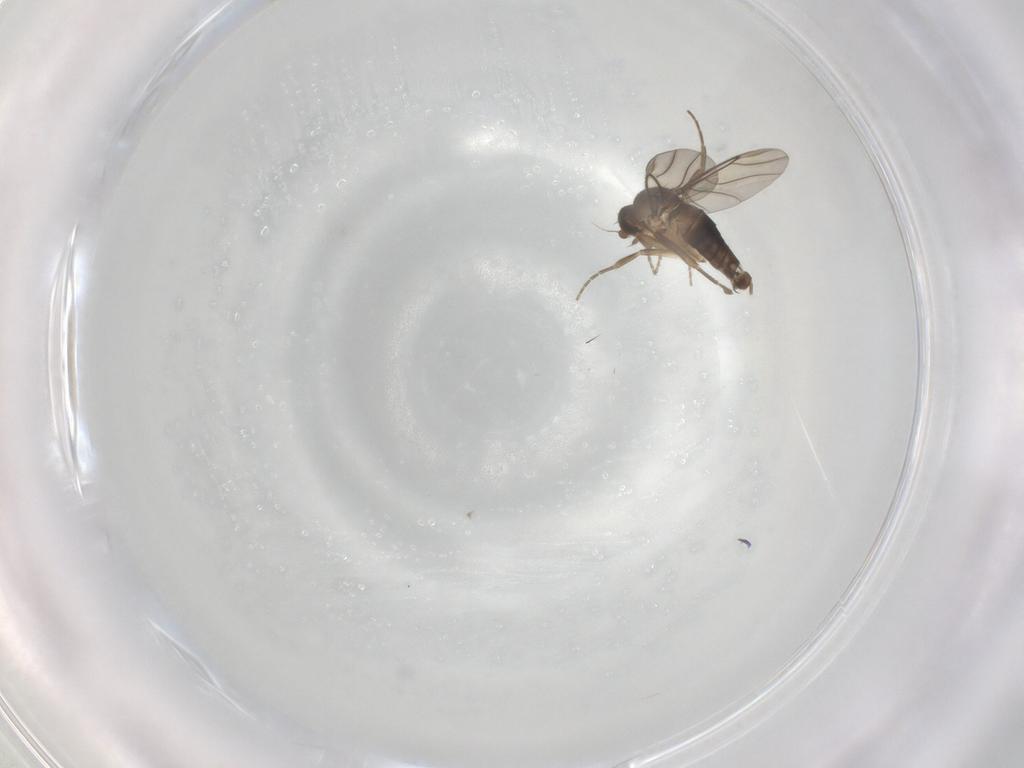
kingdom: Animalia
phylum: Arthropoda
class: Insecta
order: Diptera
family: Phoridae
